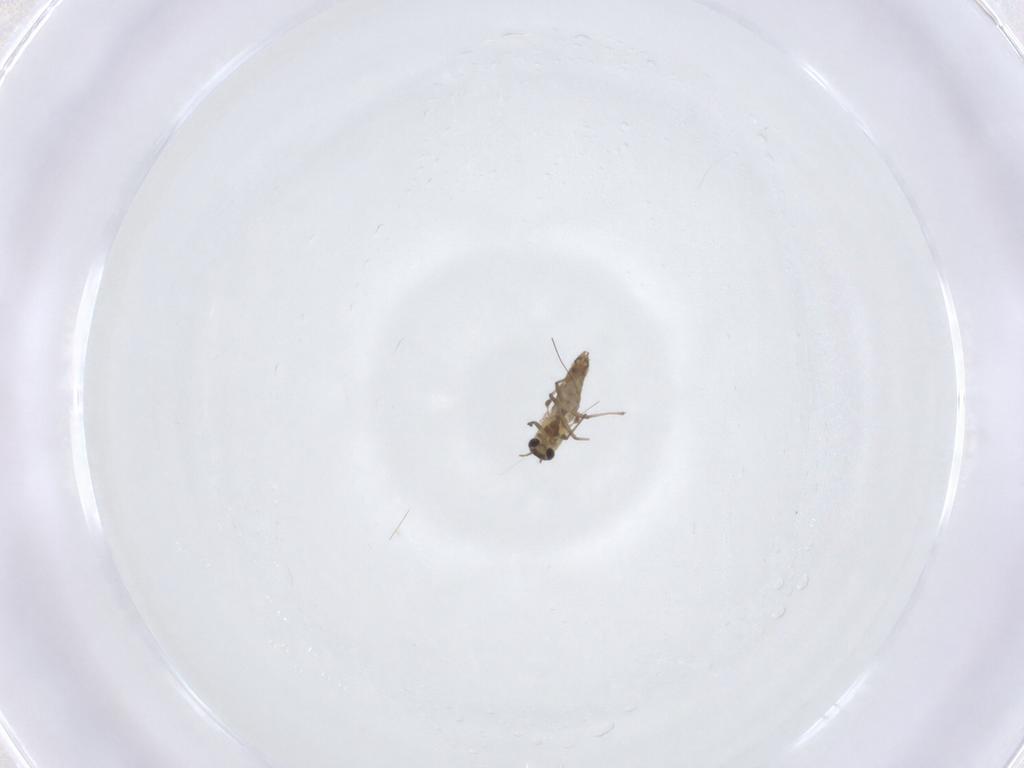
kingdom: Animalia
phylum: Arthropoda
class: Insecta
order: Diptera
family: Chironomidae
